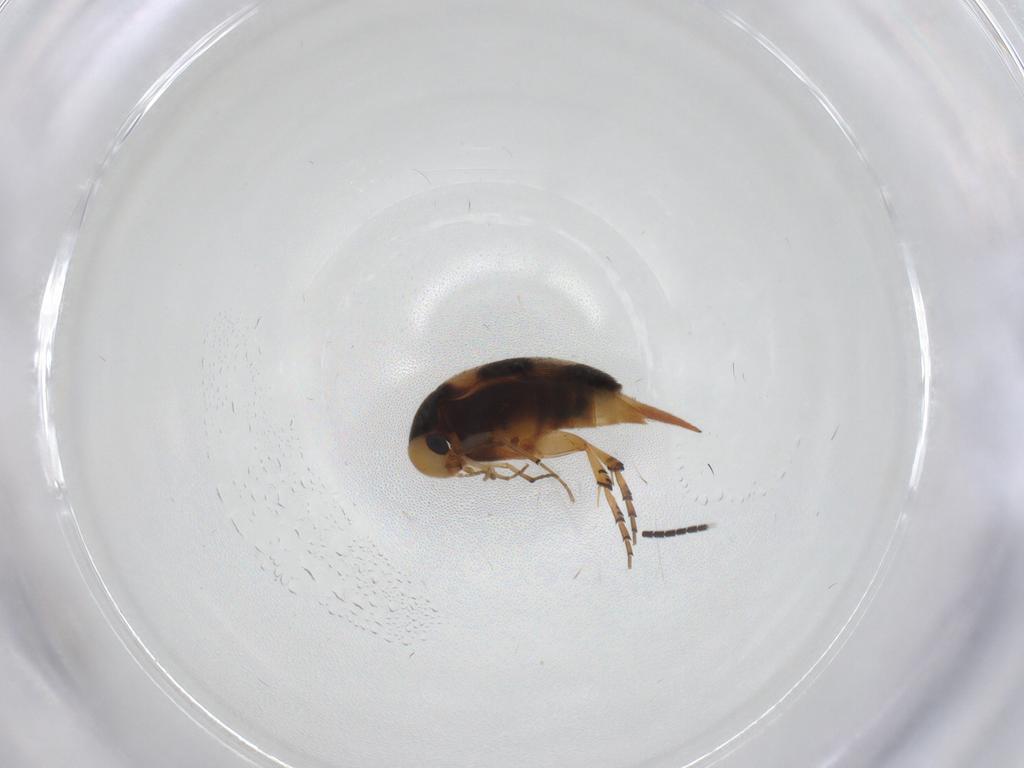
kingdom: Animalia
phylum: Arthropoda
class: Insecta
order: Coleoptera
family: Mordellidae
